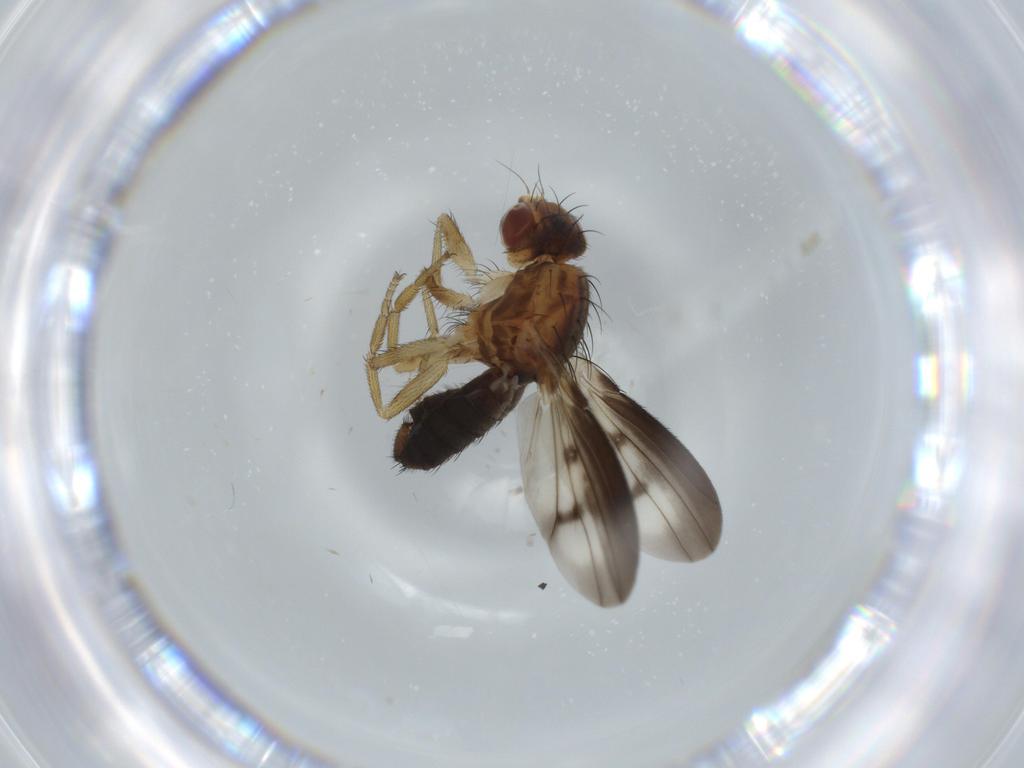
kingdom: Animalia
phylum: Arthropoda
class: Insecta
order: Diptera
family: Heleomyzidae
